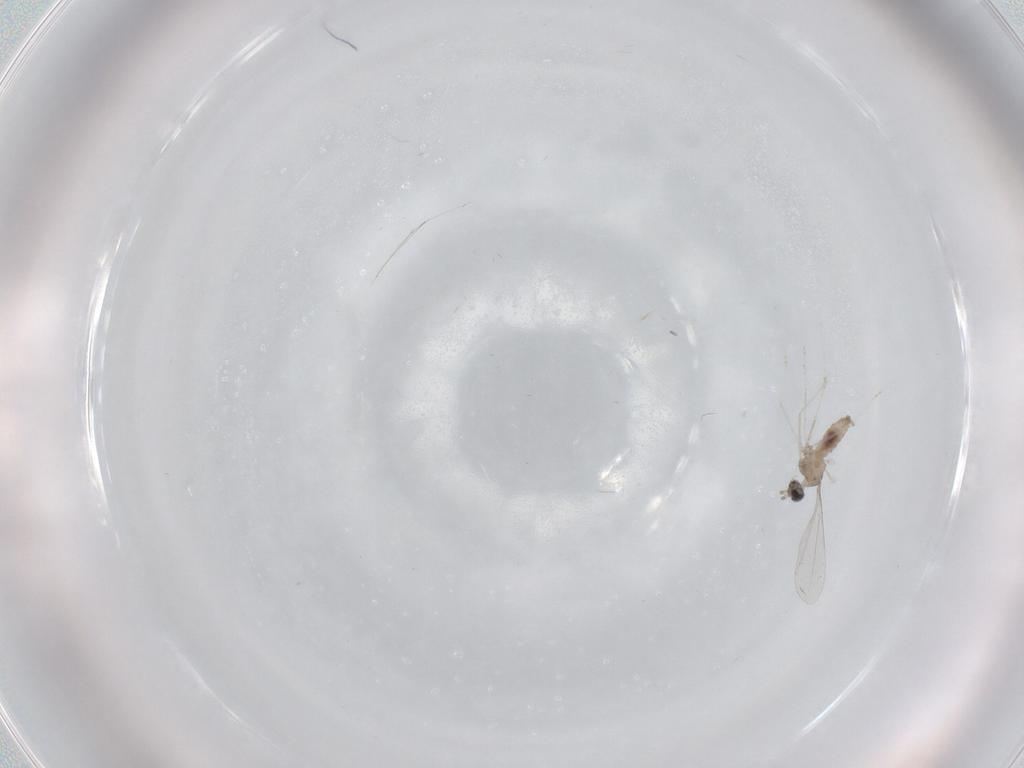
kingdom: Animalia
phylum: Arthropoda
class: Insecta
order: Diptera
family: Cecidomyiidae
